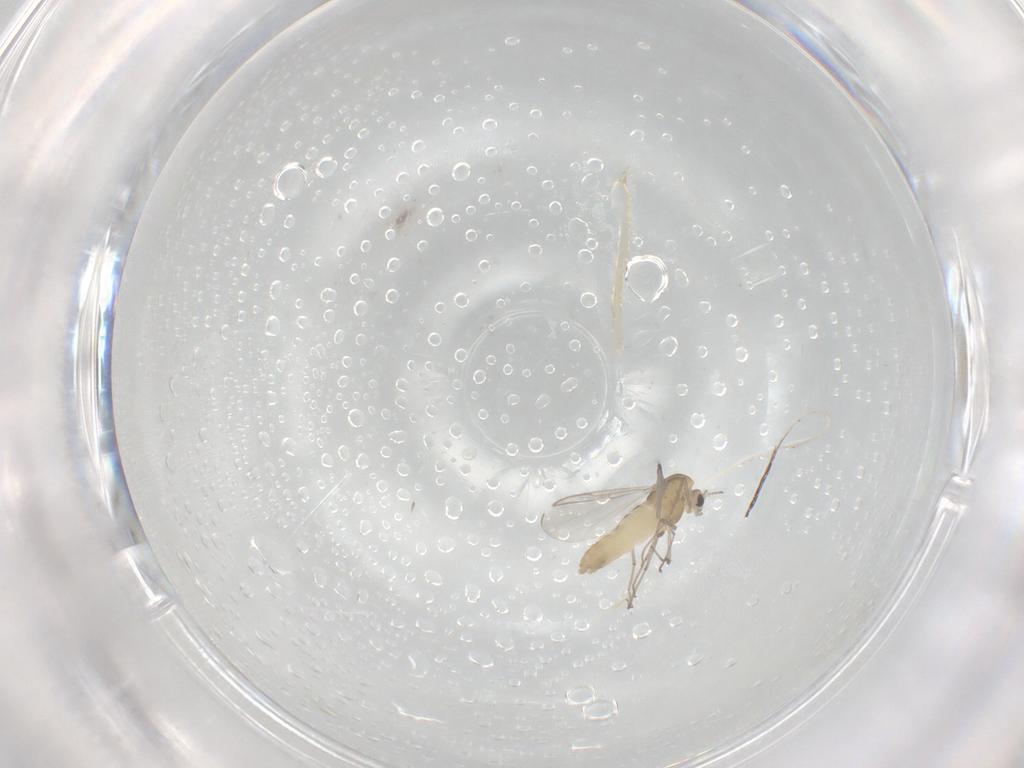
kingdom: Animalia
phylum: Arthropoda
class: Insecta
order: Diptera
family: Chironomidae
